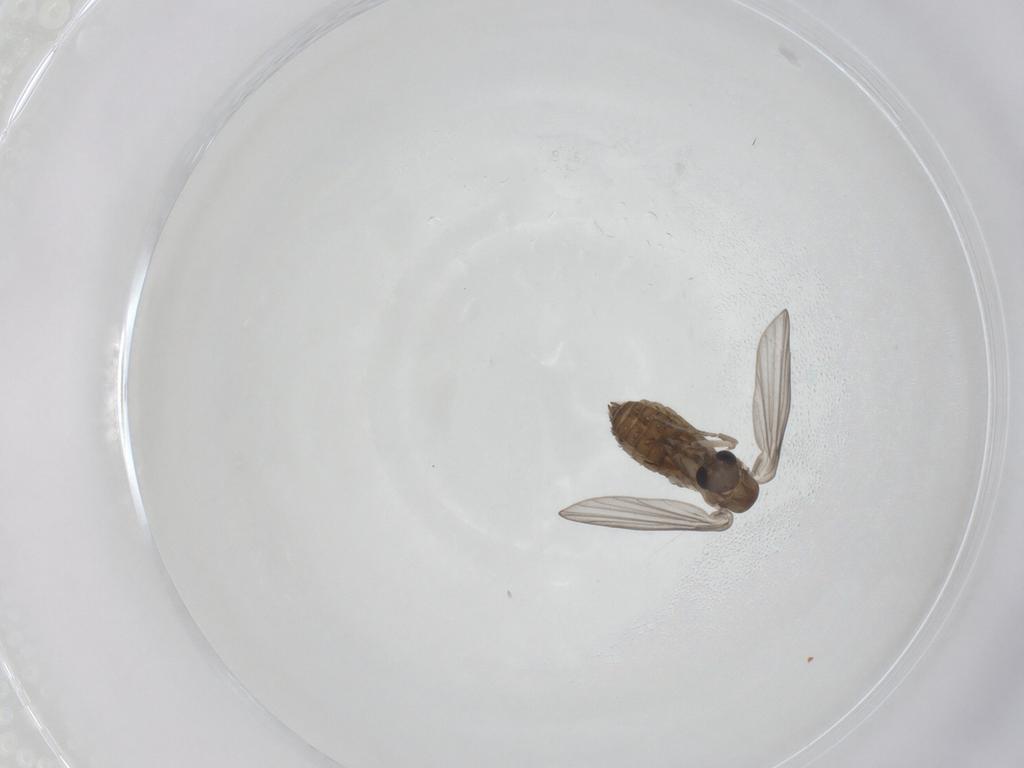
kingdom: Animalia
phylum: Arthropoda
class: Insecta
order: Diptera
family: Psychodidae
